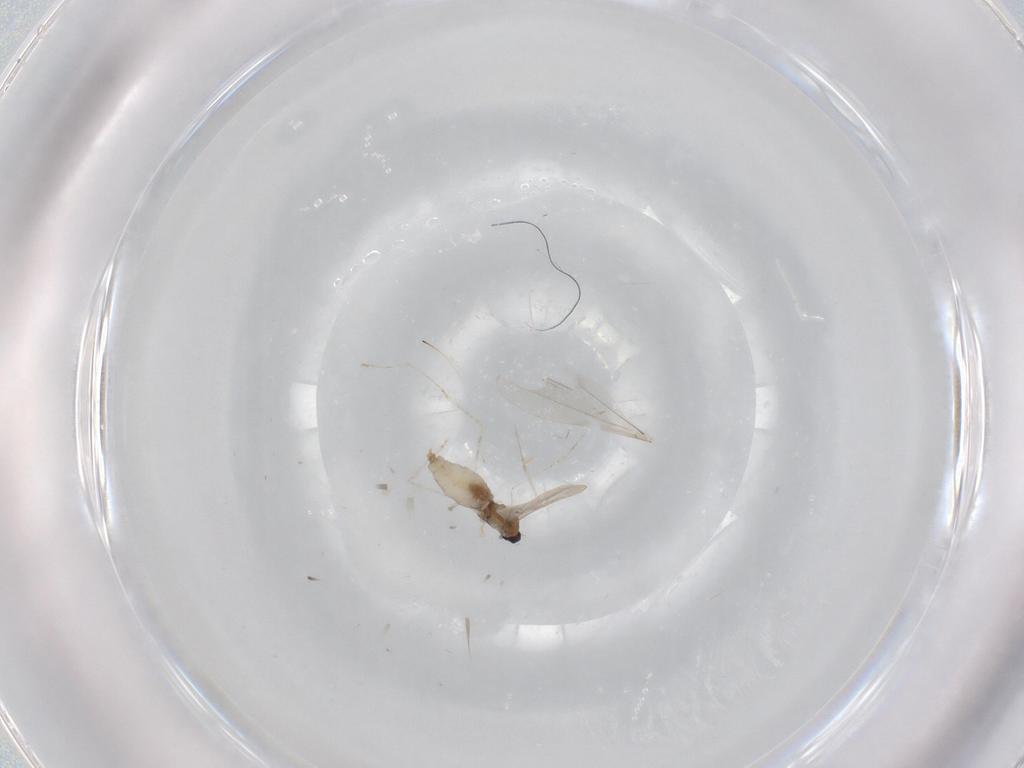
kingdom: Animalia
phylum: Arthropoda
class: Insecta
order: Diptera
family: Cecidomyiidae
